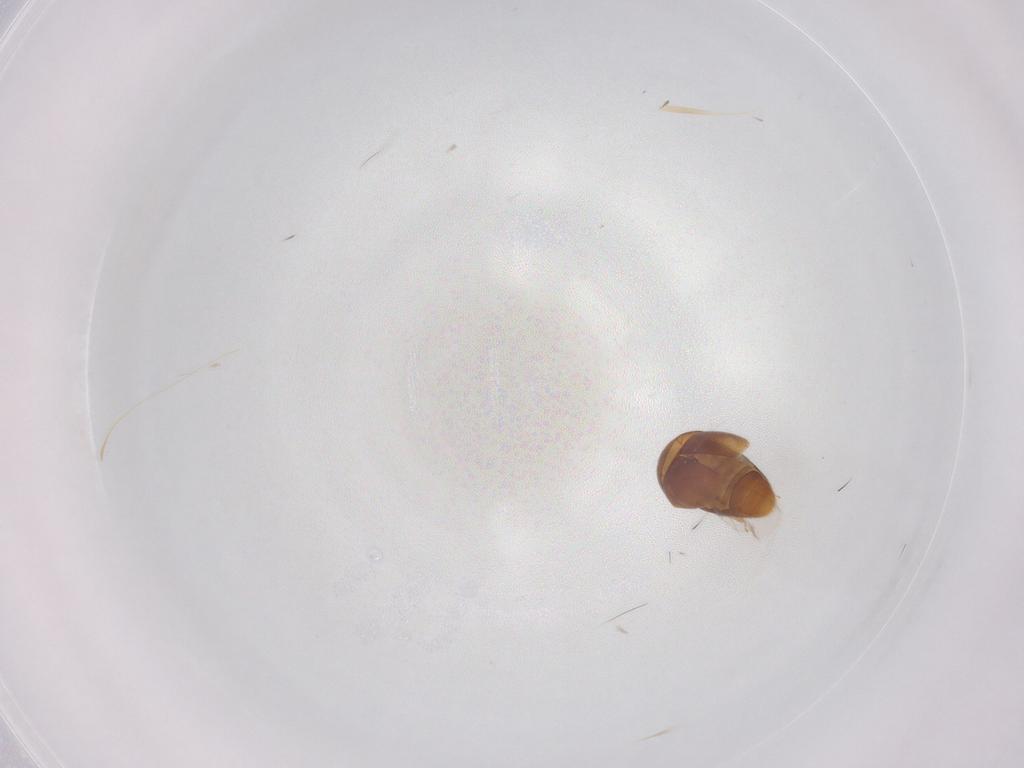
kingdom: Animalia
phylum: Arthropoda
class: Insecta
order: Coleoptera
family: Corylophidae
